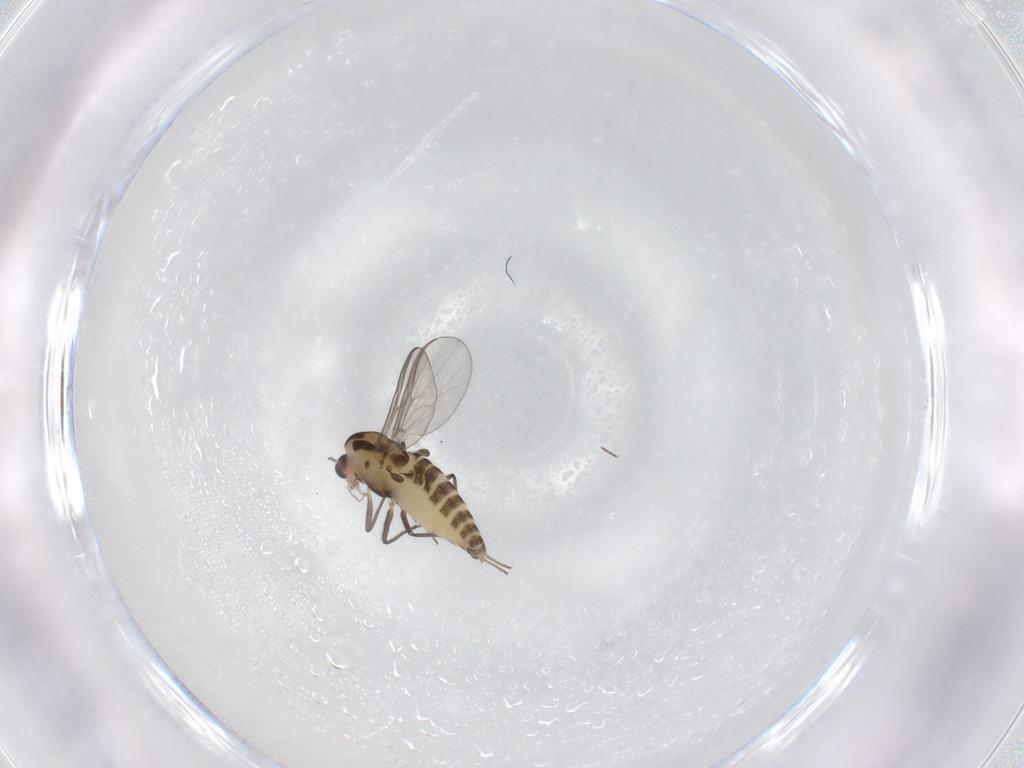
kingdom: Animalia
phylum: Arthropoda
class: Insecta
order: Diptera
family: Chironomidae
